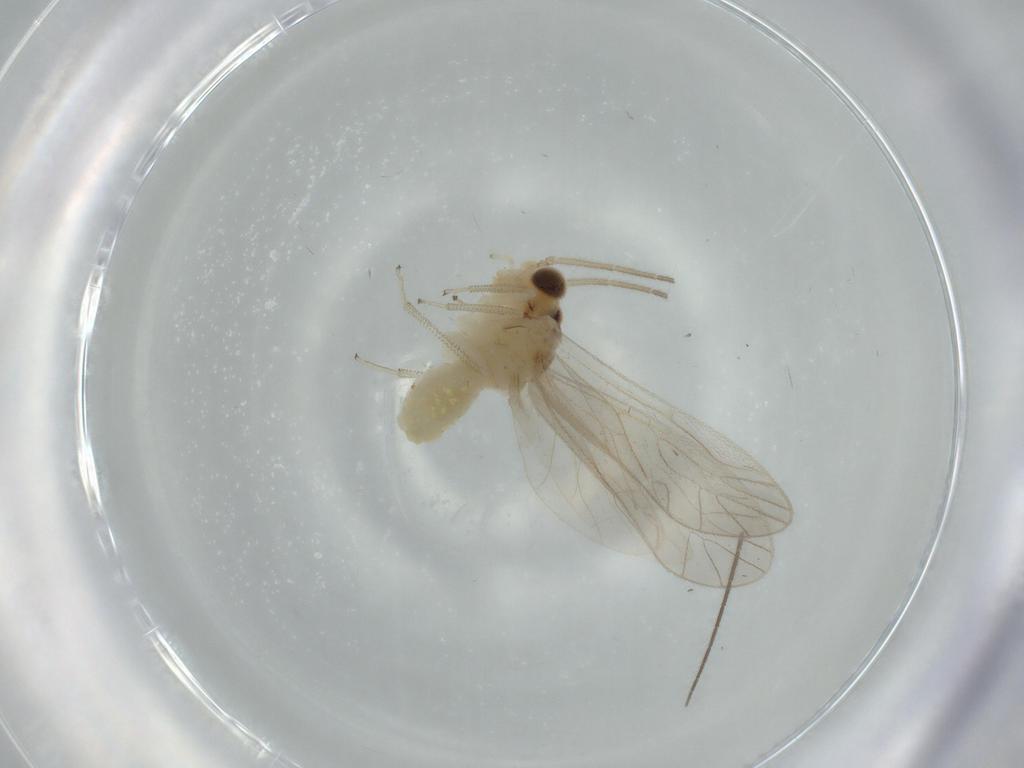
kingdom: Animalia
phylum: Arthropoda
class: Insecta
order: Psocodea
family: Caeciliusidae
